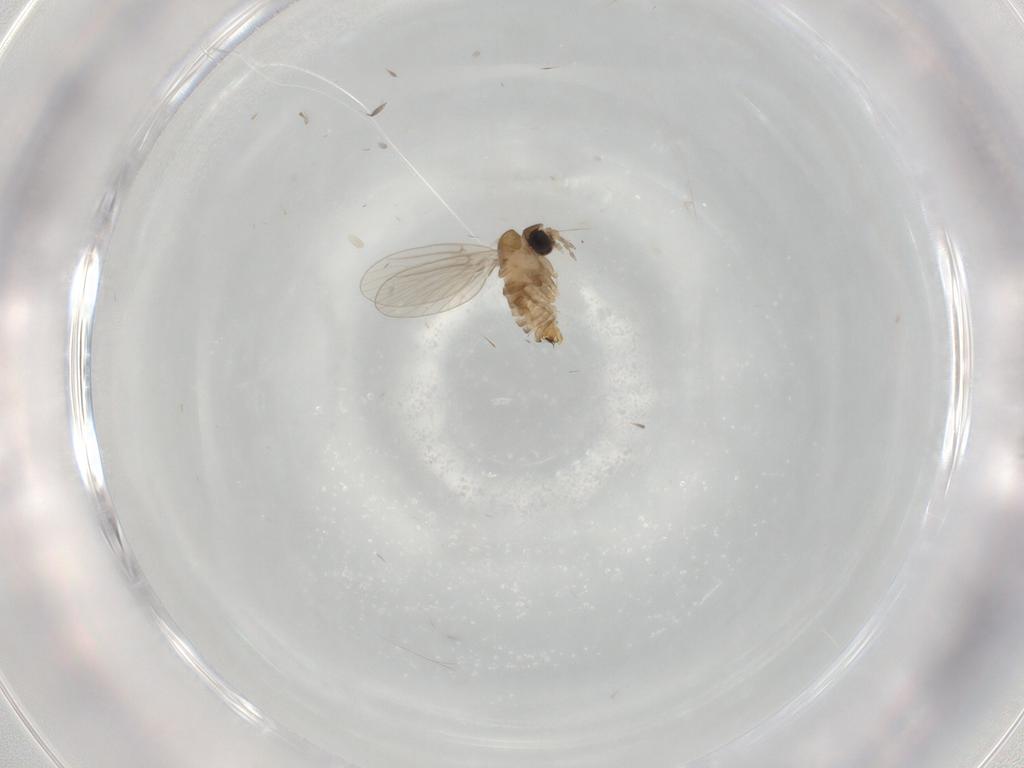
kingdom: Animalia
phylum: Arthropoda
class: Insecta
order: Diptera
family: Psychodidae
